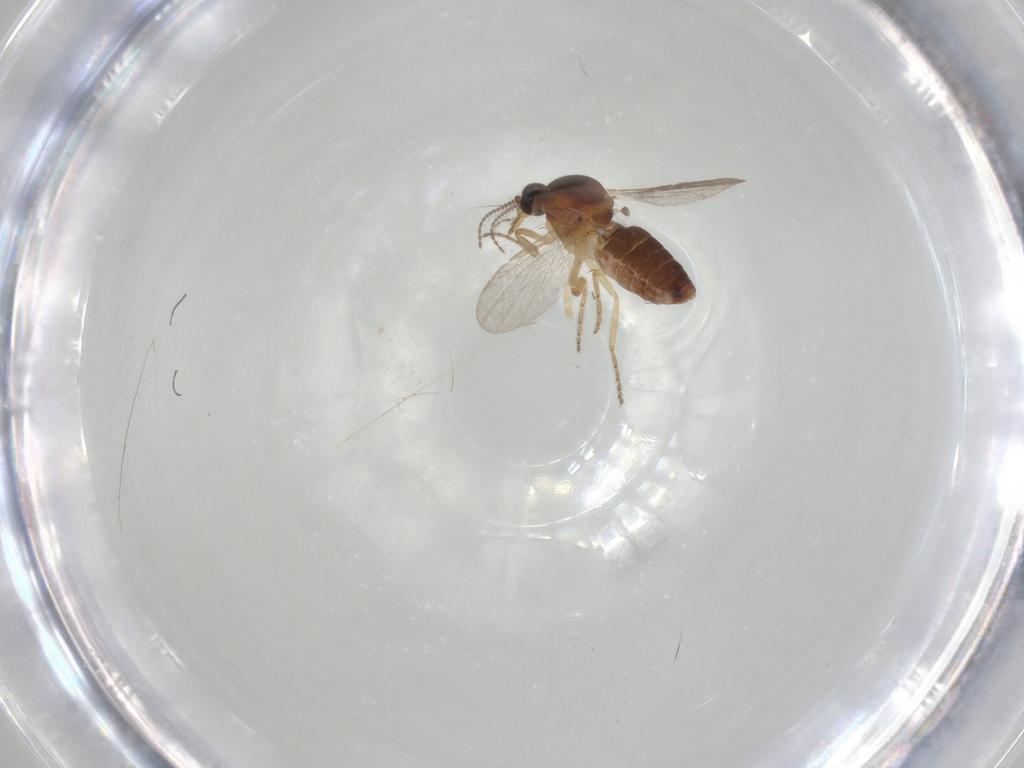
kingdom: Animalia
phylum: Arthropoda
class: Insecta
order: Diptera
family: Ceratopogonidae
